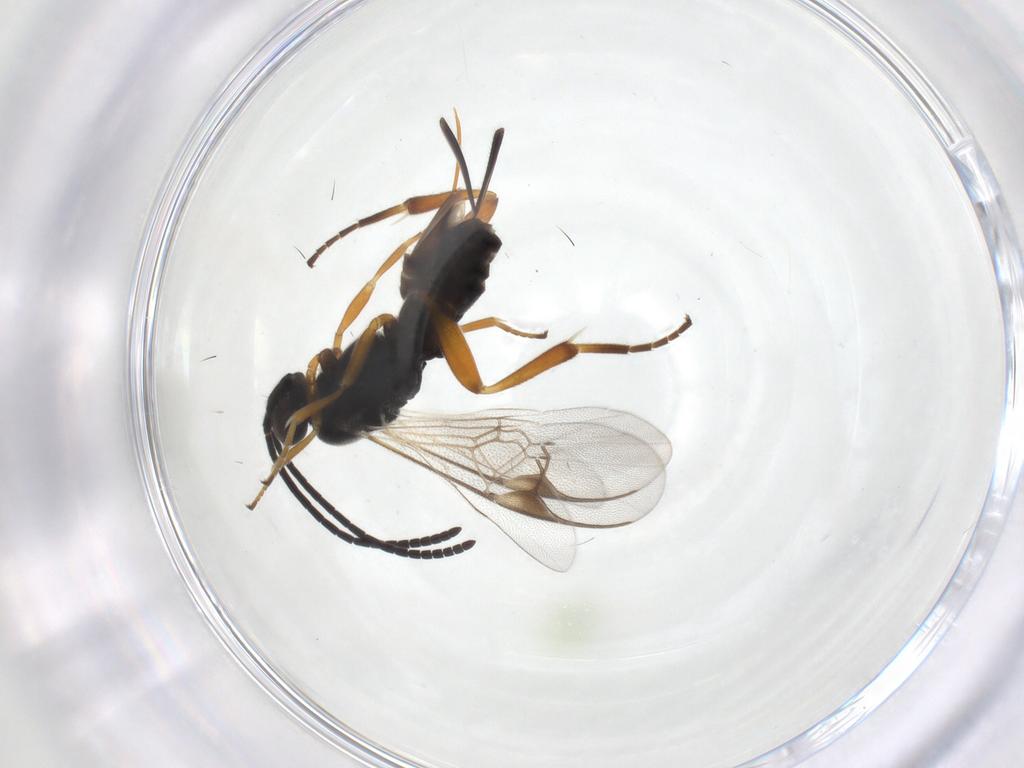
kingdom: Animalia
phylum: Arthropoda
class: Insecta
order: Hymenoptera
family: Braconidae
